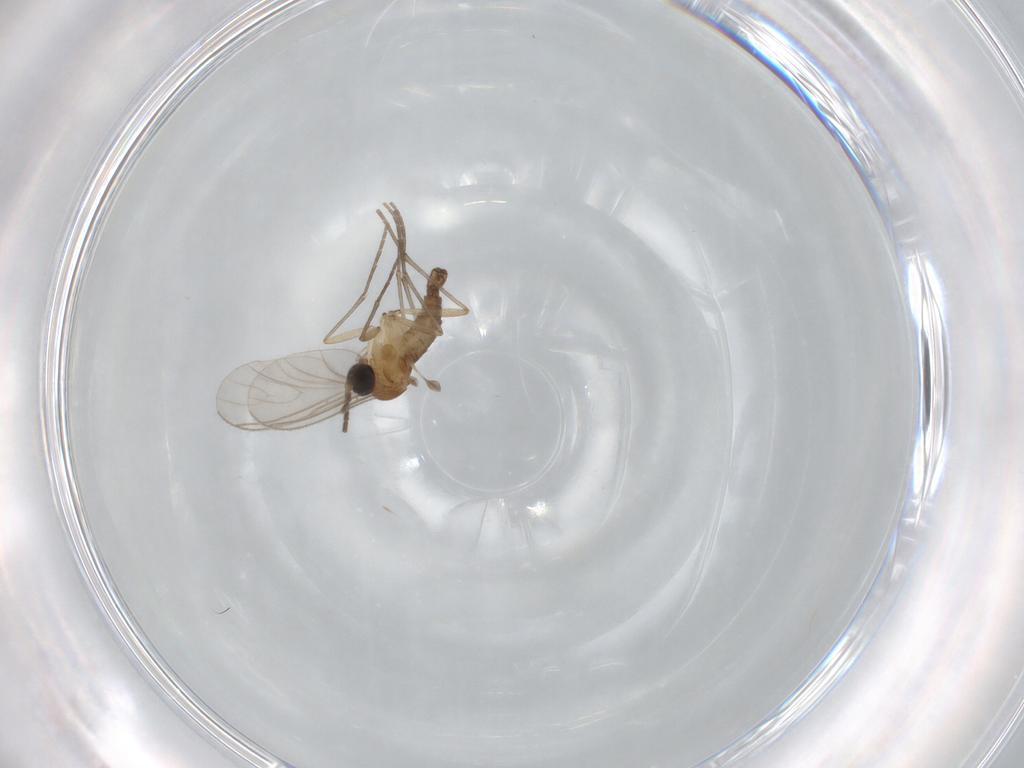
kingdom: Animalia
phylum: Arthropoda
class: Insecta
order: Diptera
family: Sciaridae
